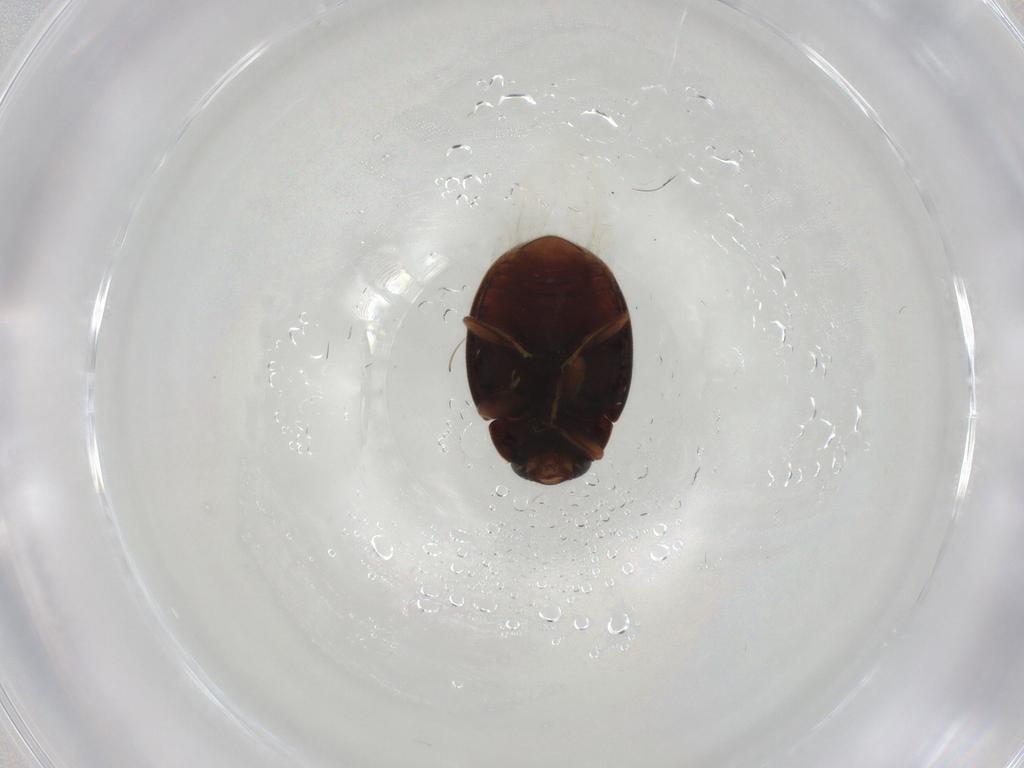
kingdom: Animalia
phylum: Arthropoda
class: Insecta
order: Coleoptera
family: Coccinellidae
